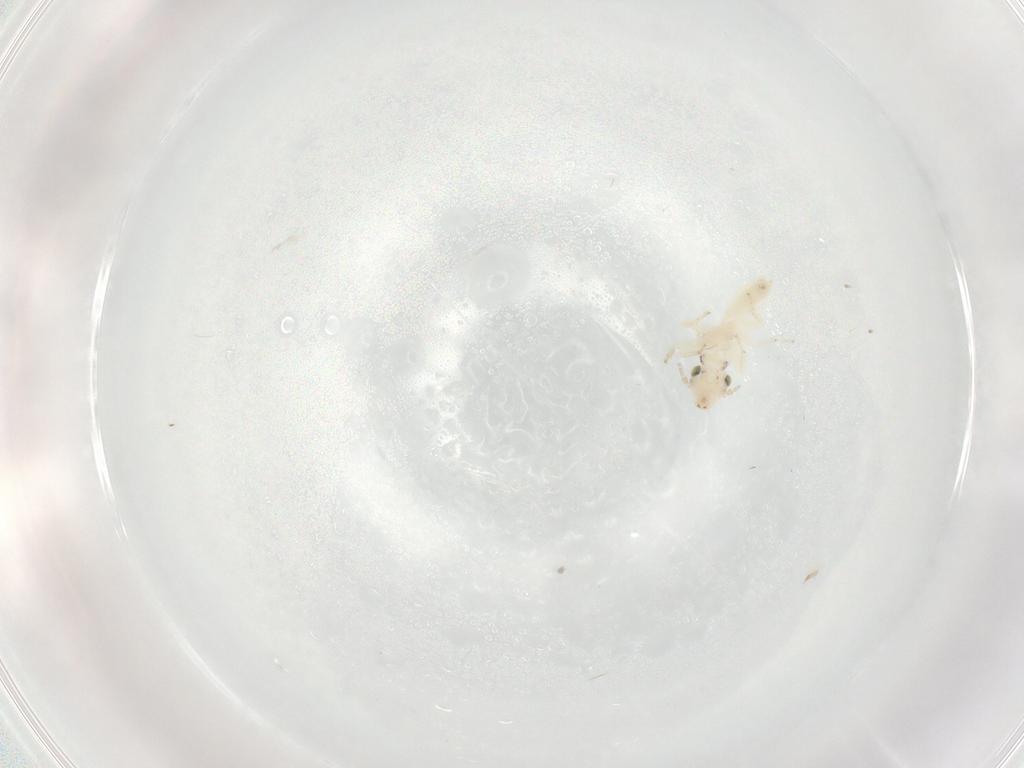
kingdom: Animalia
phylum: Arthropoda
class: Insecta
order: Psocodea
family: Lepidopsocidae
